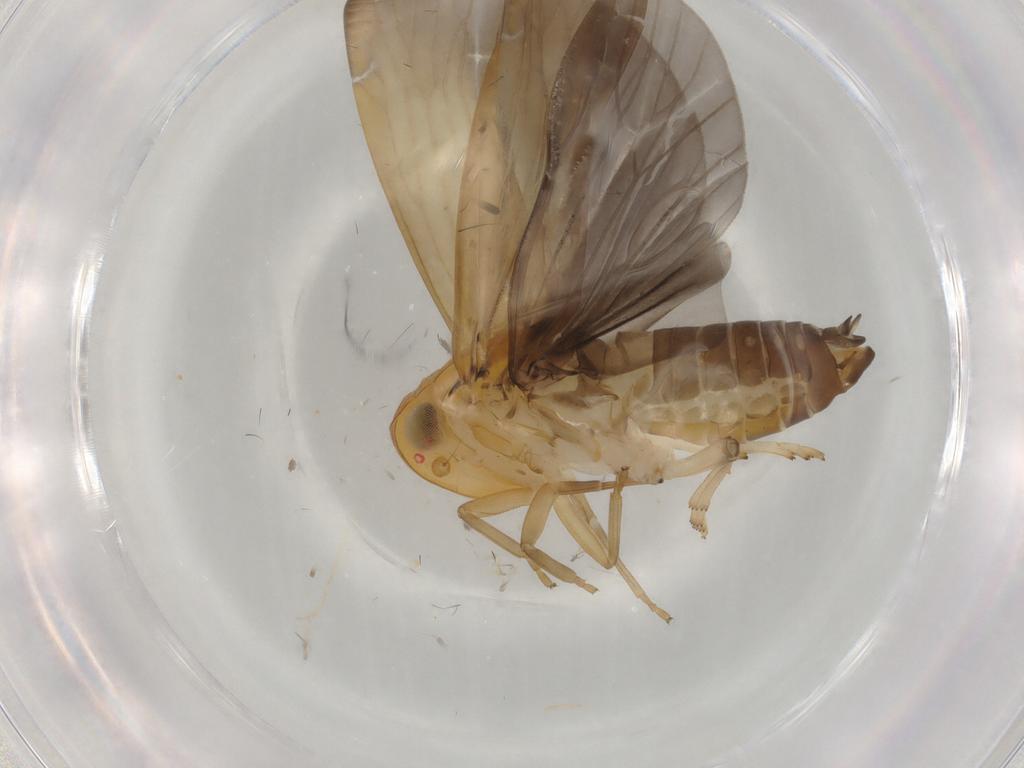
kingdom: Animalia
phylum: Arthropoda
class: Insecta
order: Hemiptera
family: Achilidae
